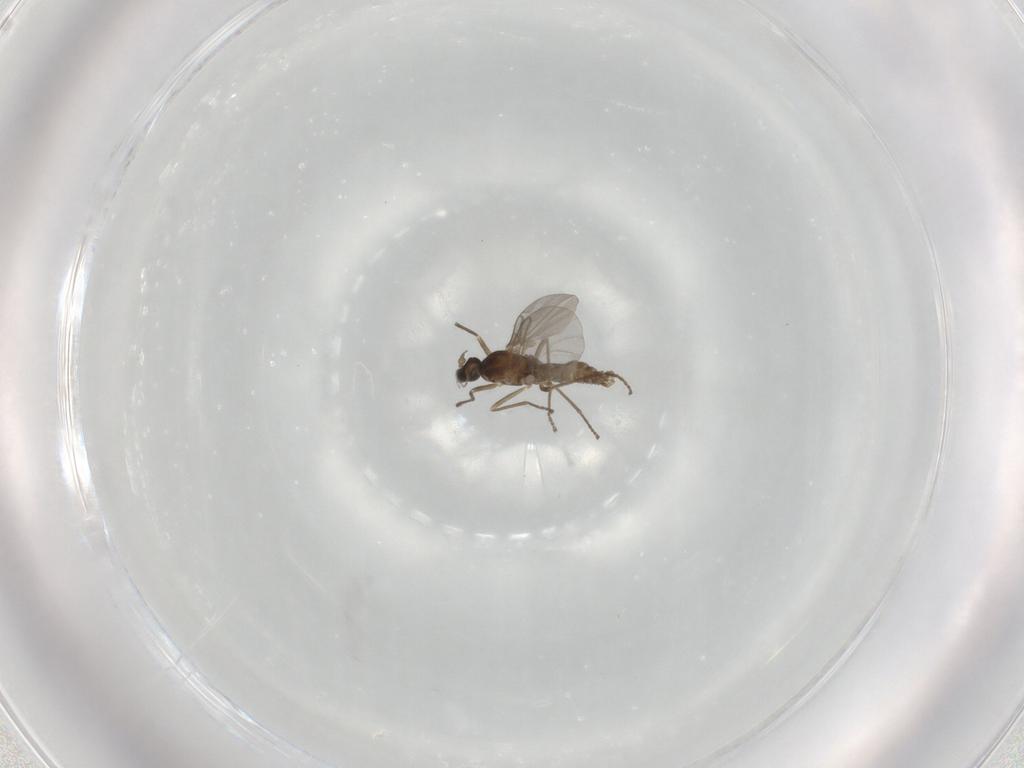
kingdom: Animalia
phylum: Arthropoda
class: Insecta
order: Diptera
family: Cecidomyiidae
